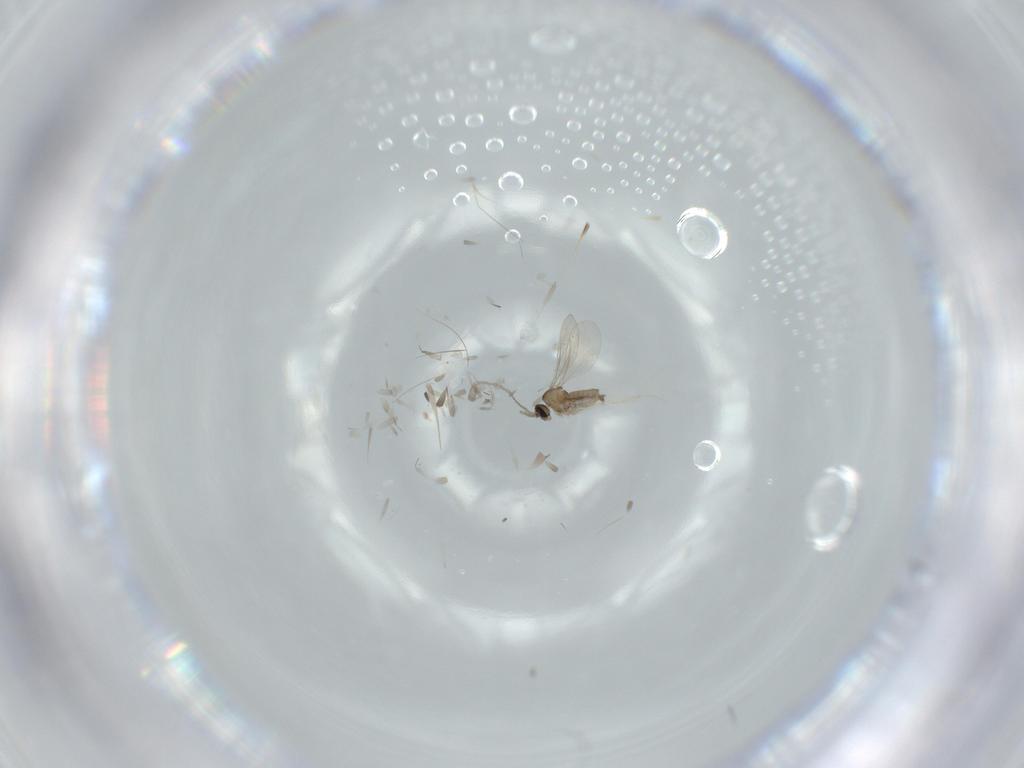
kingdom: Animalia
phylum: Arthropoda
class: Insecta
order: Diptera
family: Cecidomyiidae
